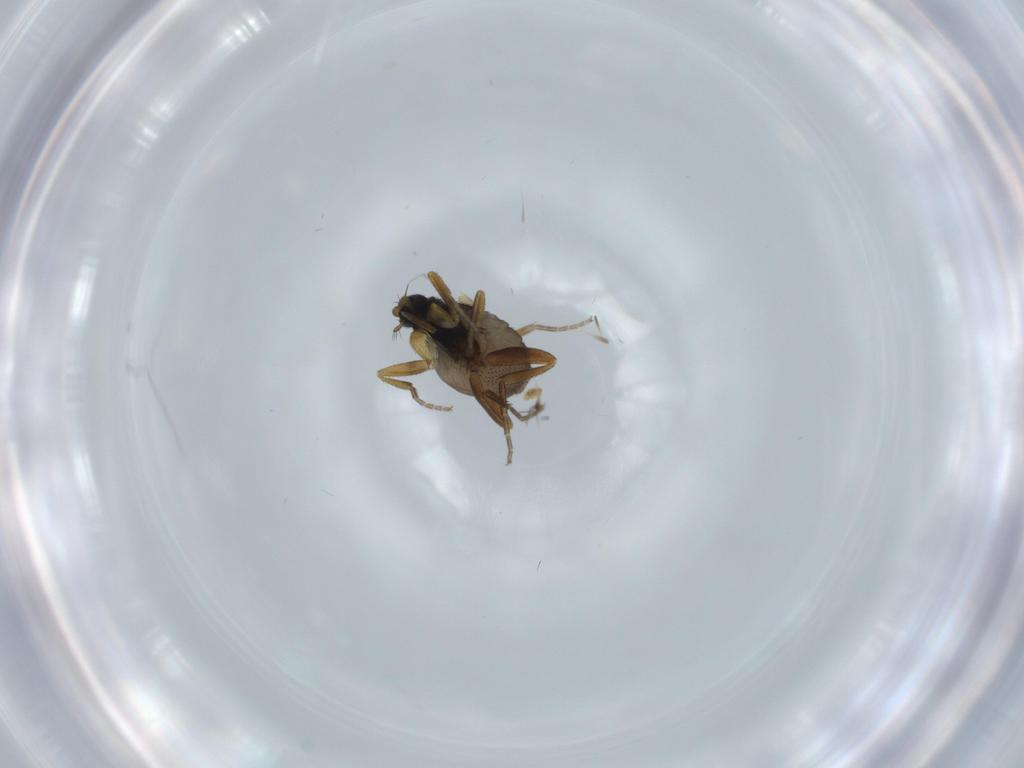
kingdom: Animalia
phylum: Arthropoda
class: Insecta
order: Diptera
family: Phoridae
